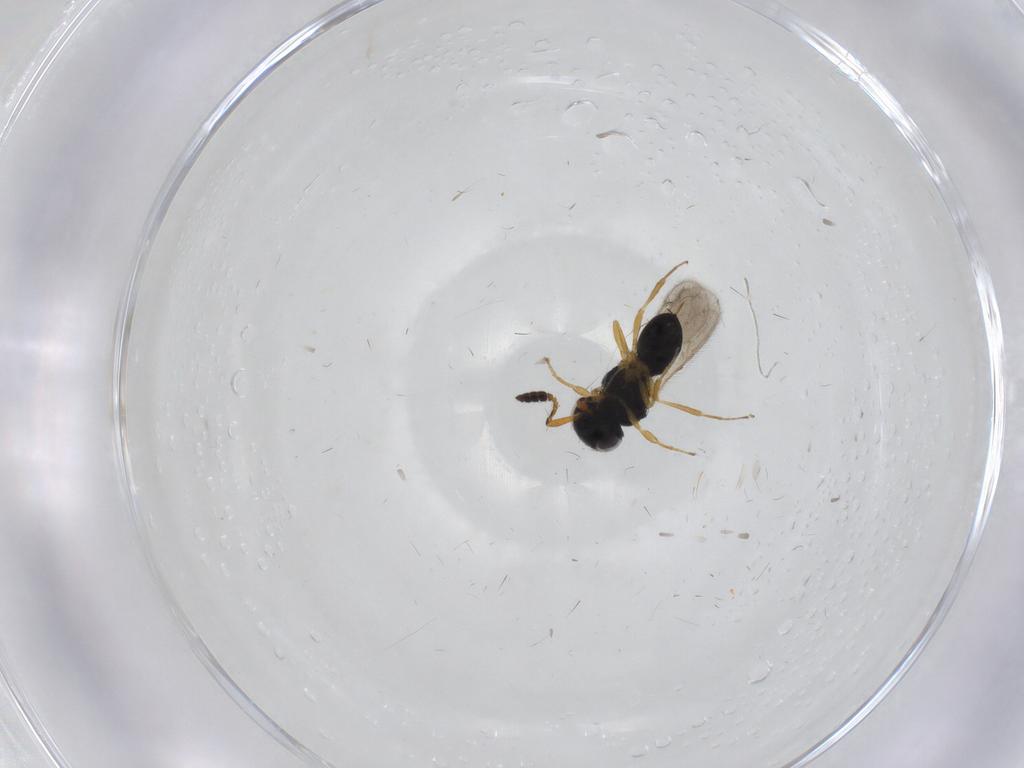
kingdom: Animalia
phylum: Arthropoda
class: Insecta
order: Hymenoptera
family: Scelionidae
